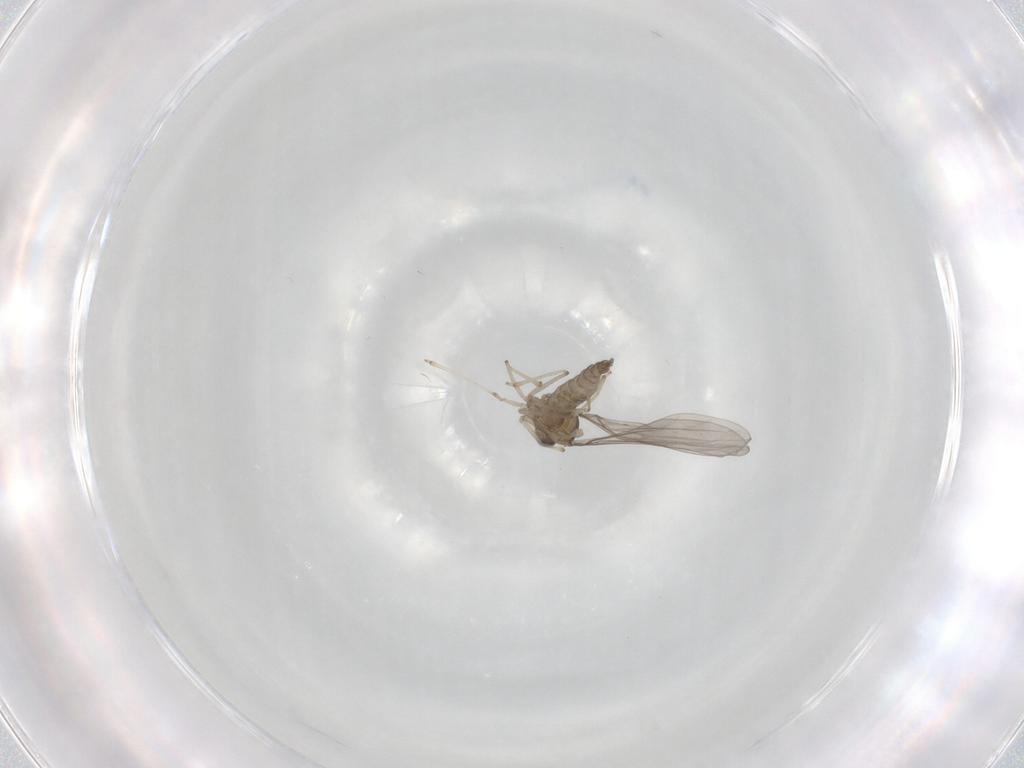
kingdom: Animalia
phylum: Arthropoda
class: Insecta
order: Diptera
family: Cecidomyiidae
